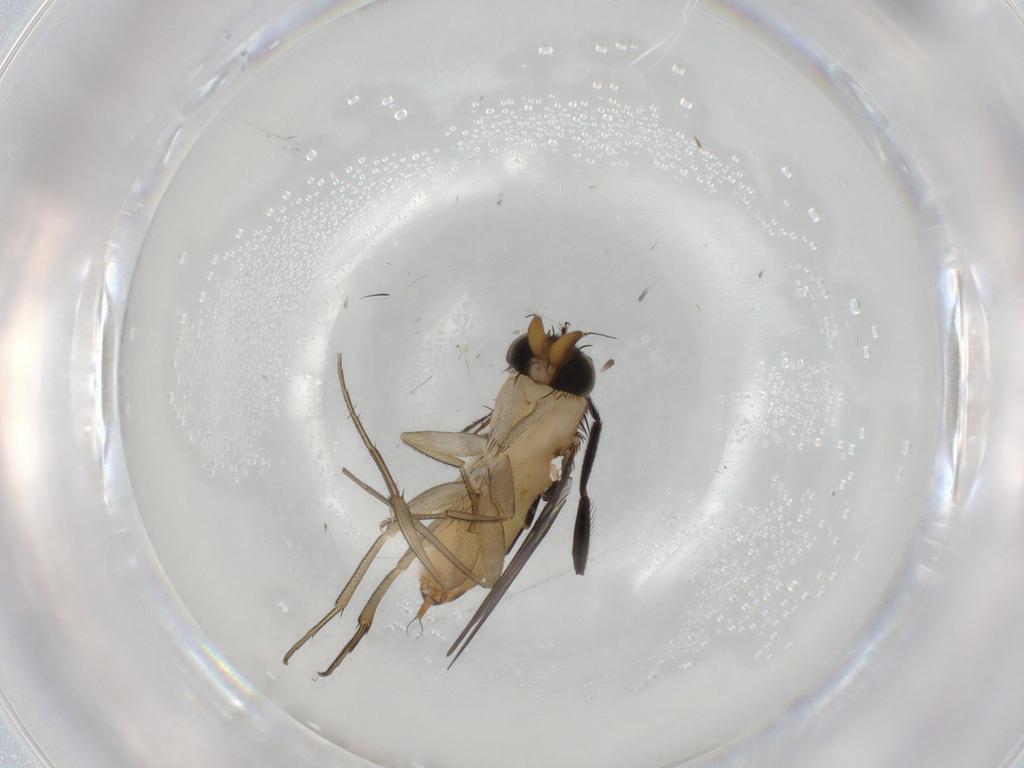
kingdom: Animalia
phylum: Arthropoda
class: Insecta
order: Diptera
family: Phoridae
